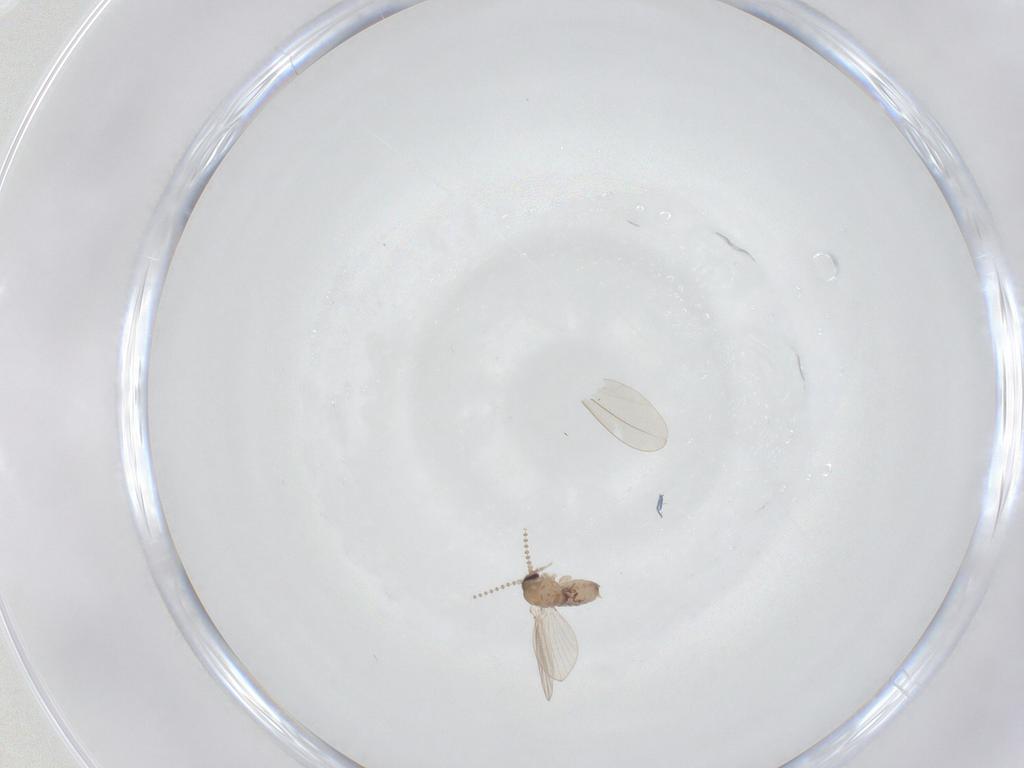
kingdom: Animalia
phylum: Arthropoda
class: Insecta
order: Diptera
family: Psychodidae
